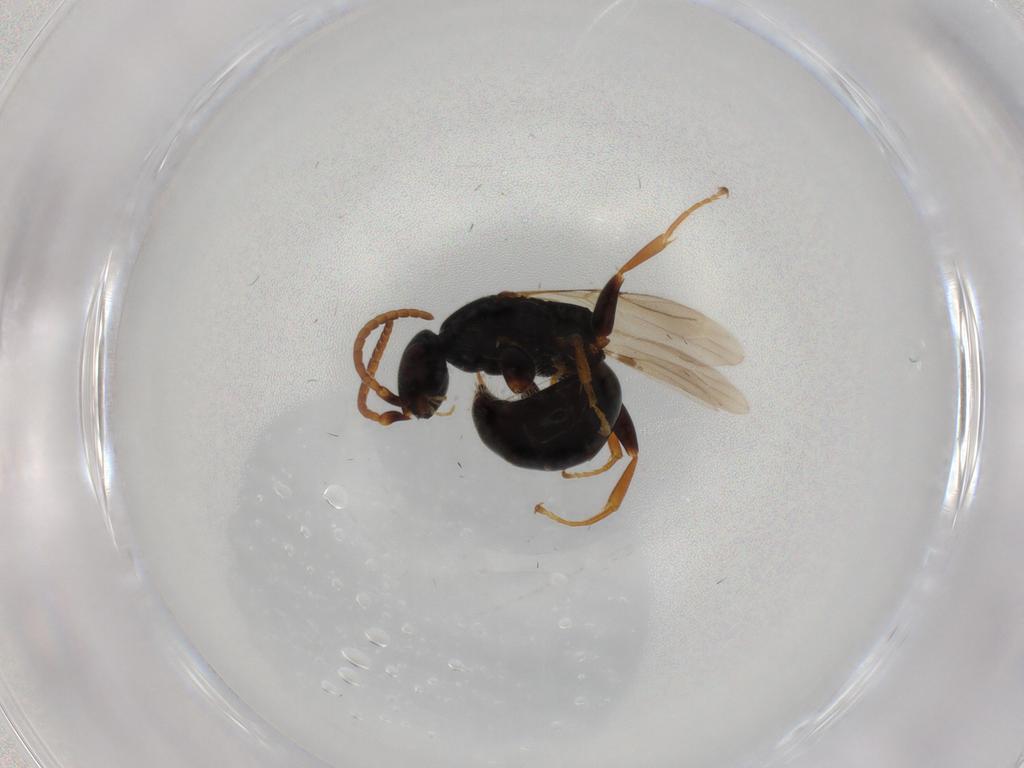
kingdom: Animalia
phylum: Arthropoda
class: Insecta
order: Hymenoptera
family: Bethylidae
